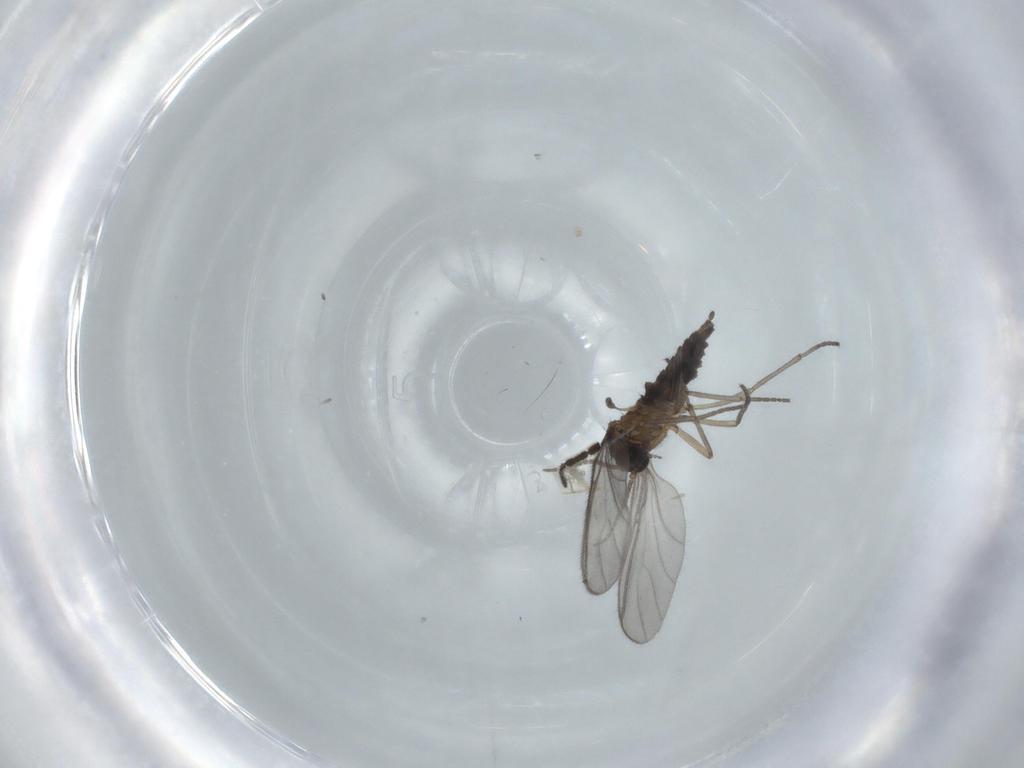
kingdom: Animalia
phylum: Arthropoda
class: Insecta
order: Diptera
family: Sciaridae
